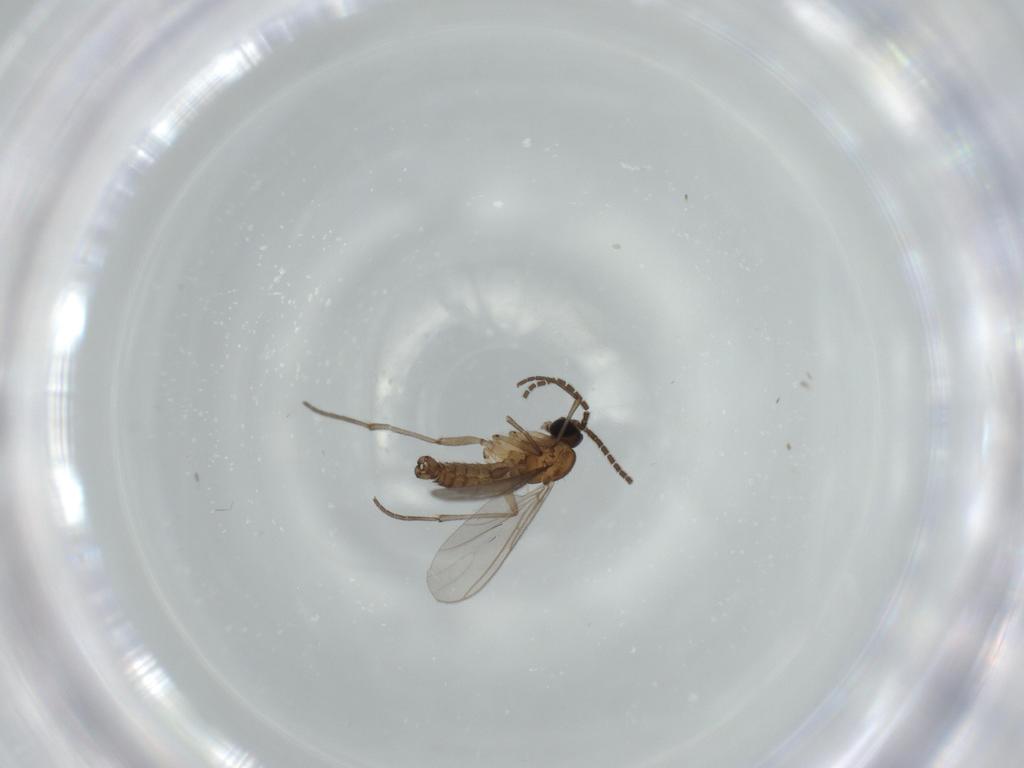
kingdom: Animalia
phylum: Arthropoda
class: Insecta
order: Diptera
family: Sciaridae
